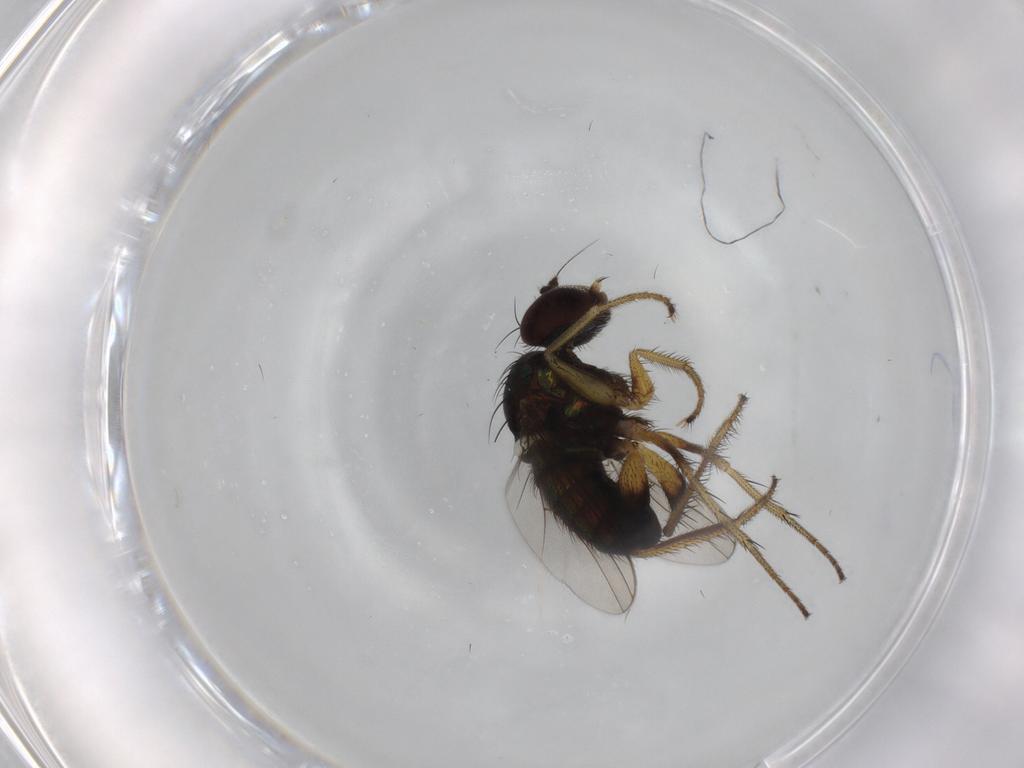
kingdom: Animalia
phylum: Arthropoda
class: Insecta
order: Diptera
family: Dolichopodidae
